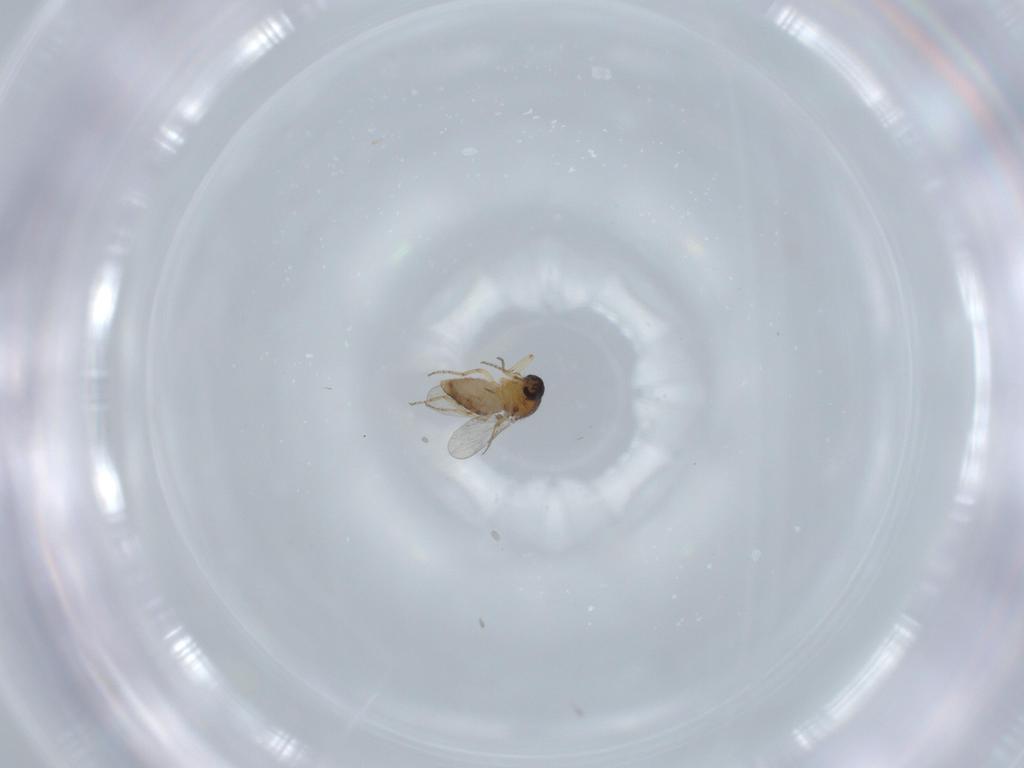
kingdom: Animalia
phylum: Arthropoda
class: Insecta
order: Diptera
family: Ceratopogonidae
